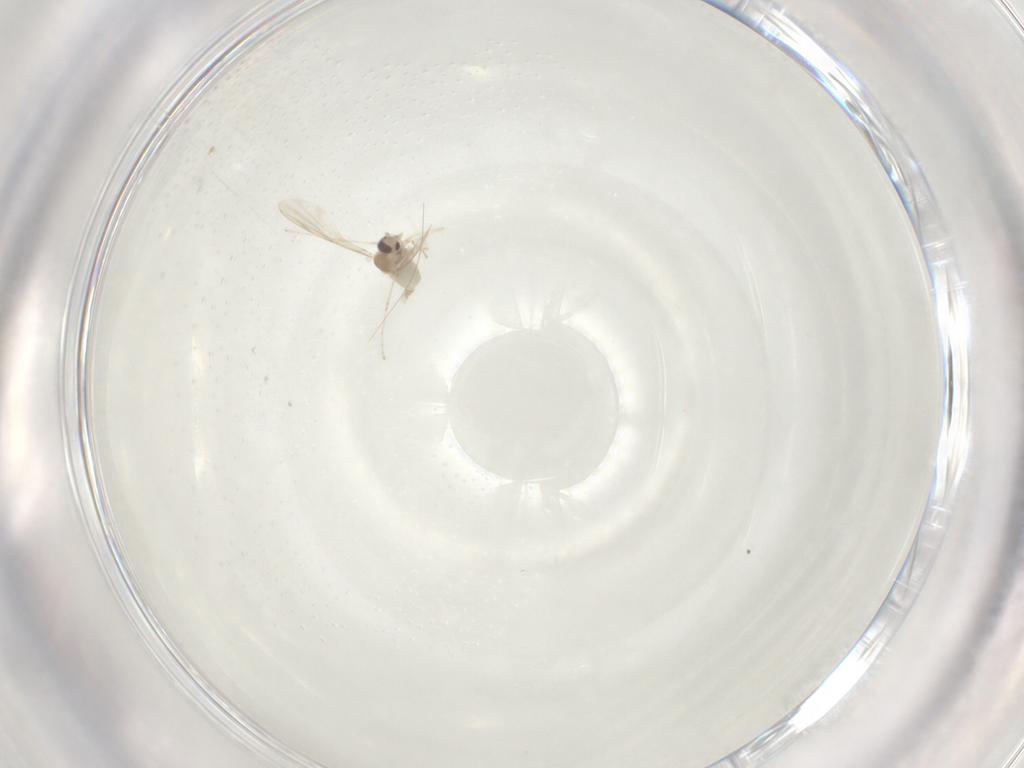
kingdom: Animalia
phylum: Arthropoda
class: Insecta
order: Diptera
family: Cecidomyiidae
